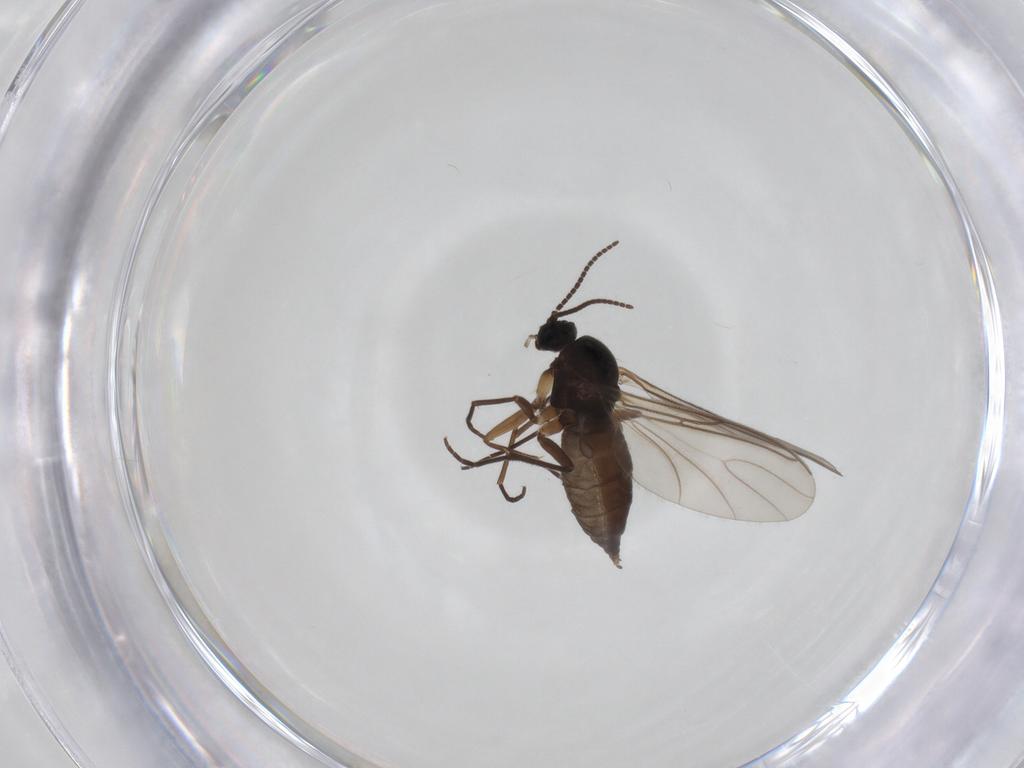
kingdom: Animalia
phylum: Arthropoda
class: Insecta
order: Diptera
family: Sciaridae
